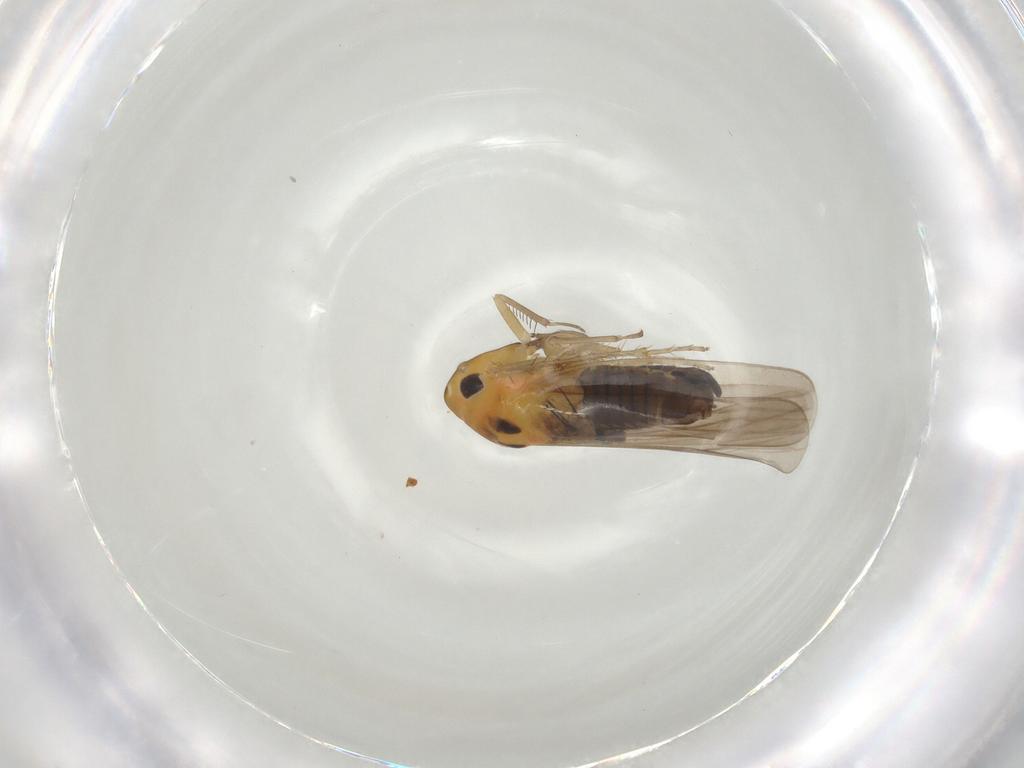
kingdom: Animalia
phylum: Arthropoda
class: Insecta
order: Hemiptera
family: Cicadellidae
